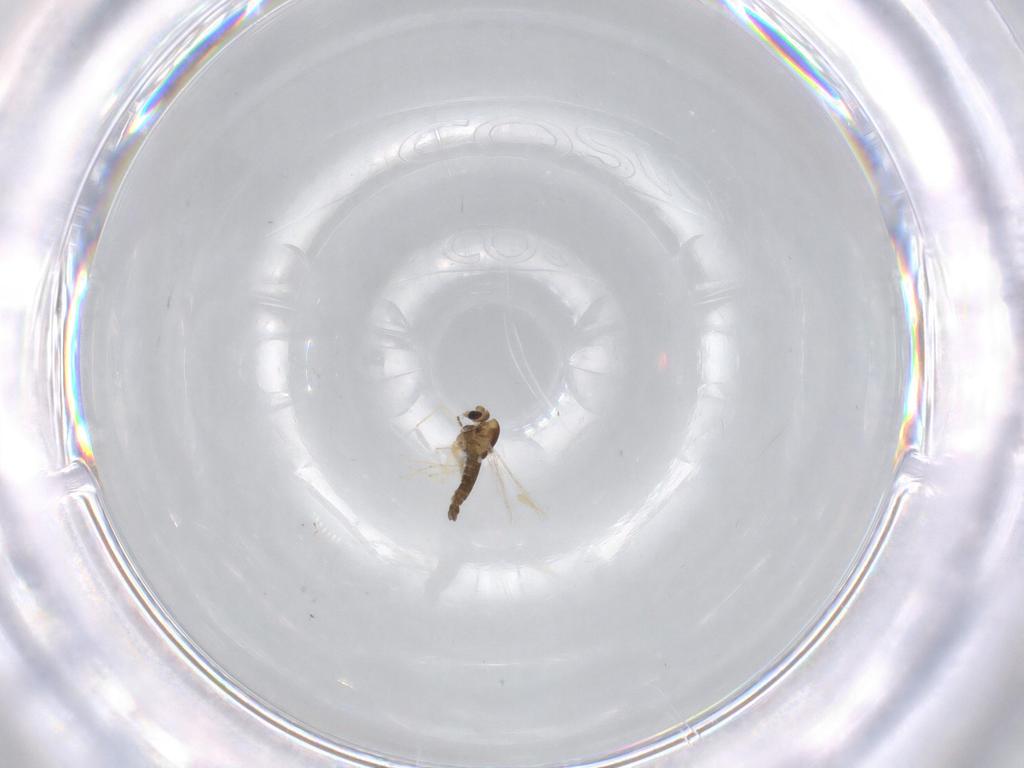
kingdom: Animalia
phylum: Arthropoda
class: Insecta
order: Diptera
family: Chironomidae
